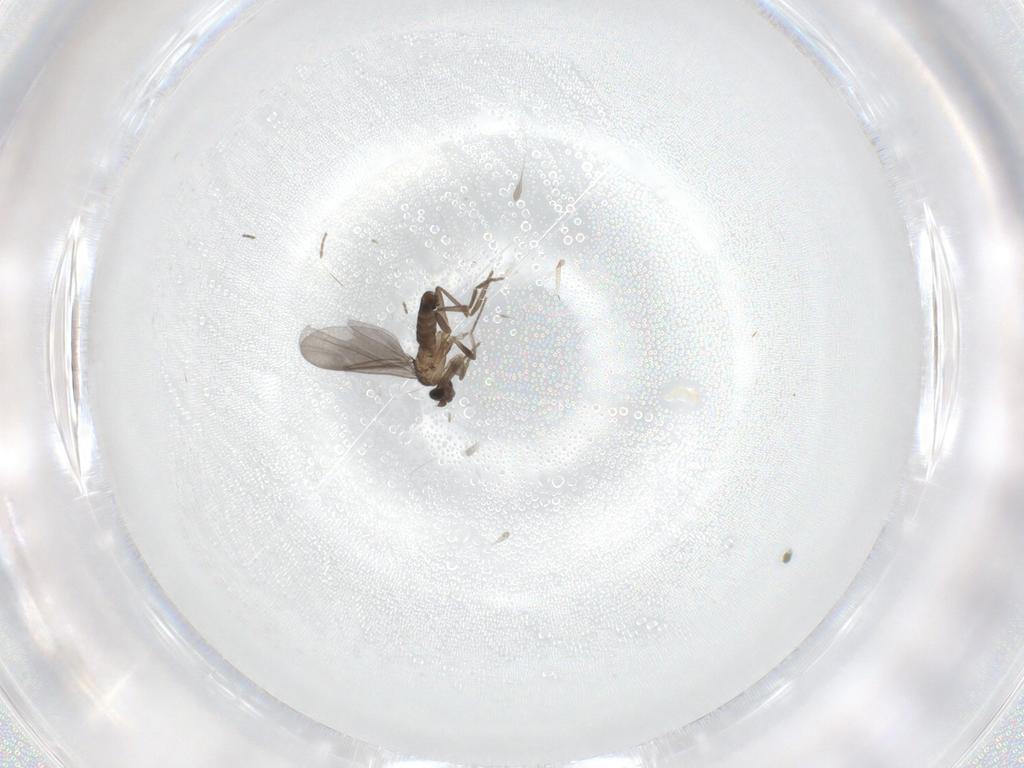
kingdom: Animalia
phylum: Arthropoda
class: Insecta
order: Diptera
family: Phoridae
